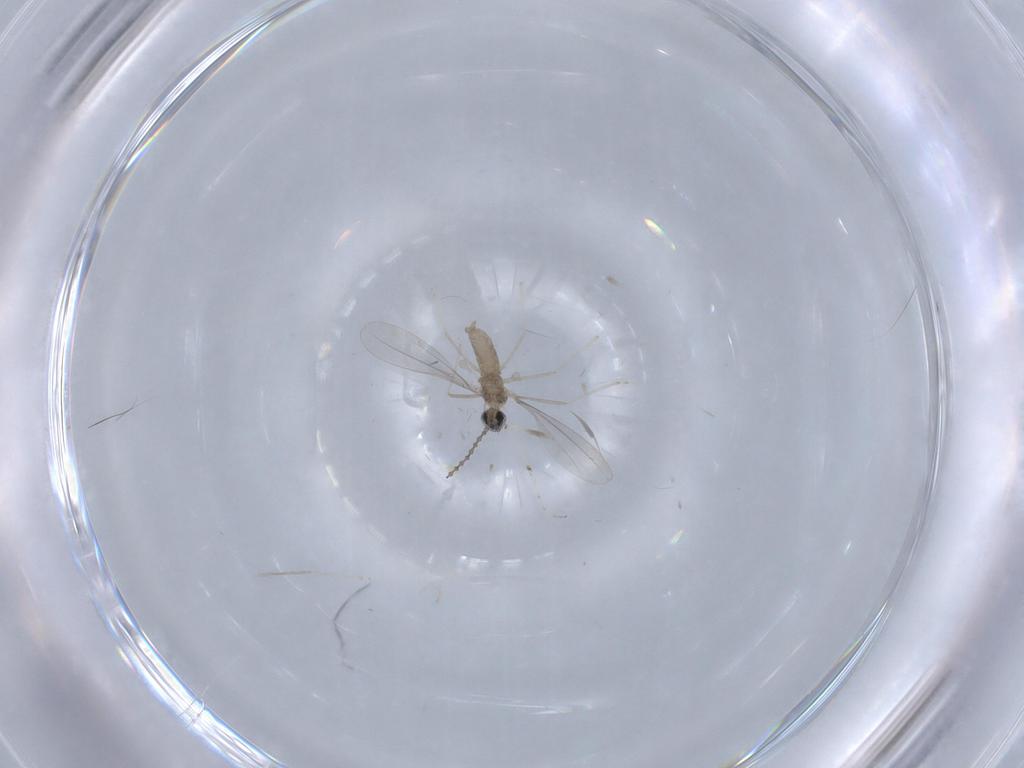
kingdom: Animalia
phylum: Arthropoda
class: Insecta
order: Diptera
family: Cecidomyiidae
